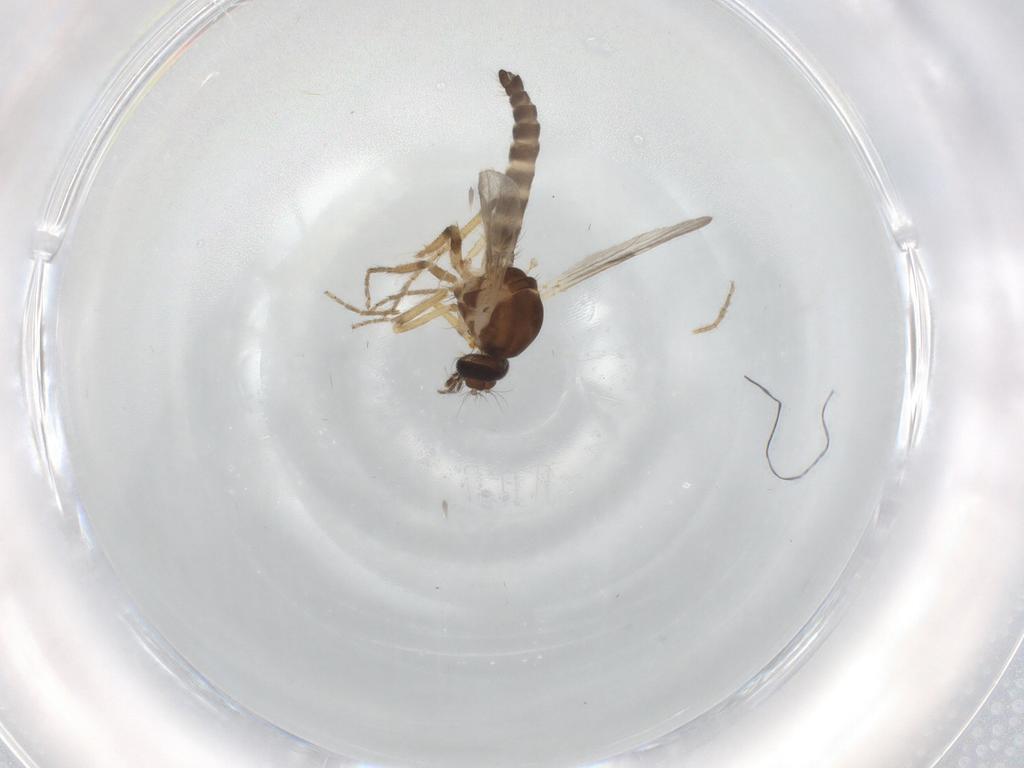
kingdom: Animalia
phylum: Arthropoda
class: Insecta
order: Diptera
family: Ceratopogonidae
